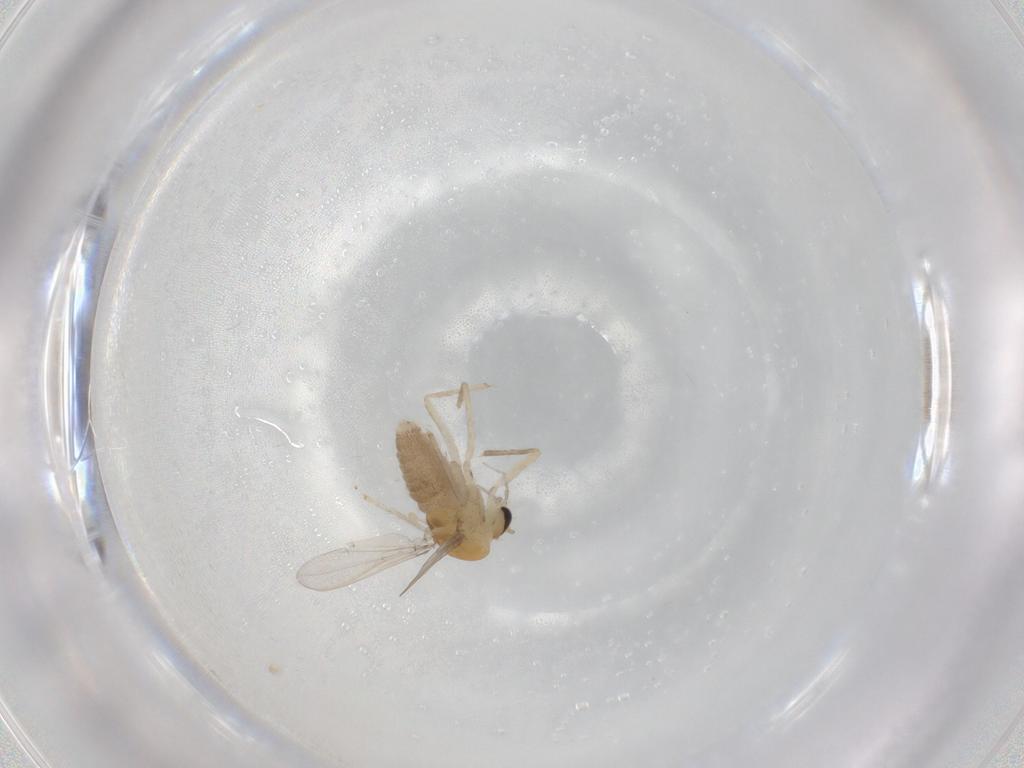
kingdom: Animalia
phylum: Arthropoda
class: Insecta
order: Diptera
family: Chironomidae
